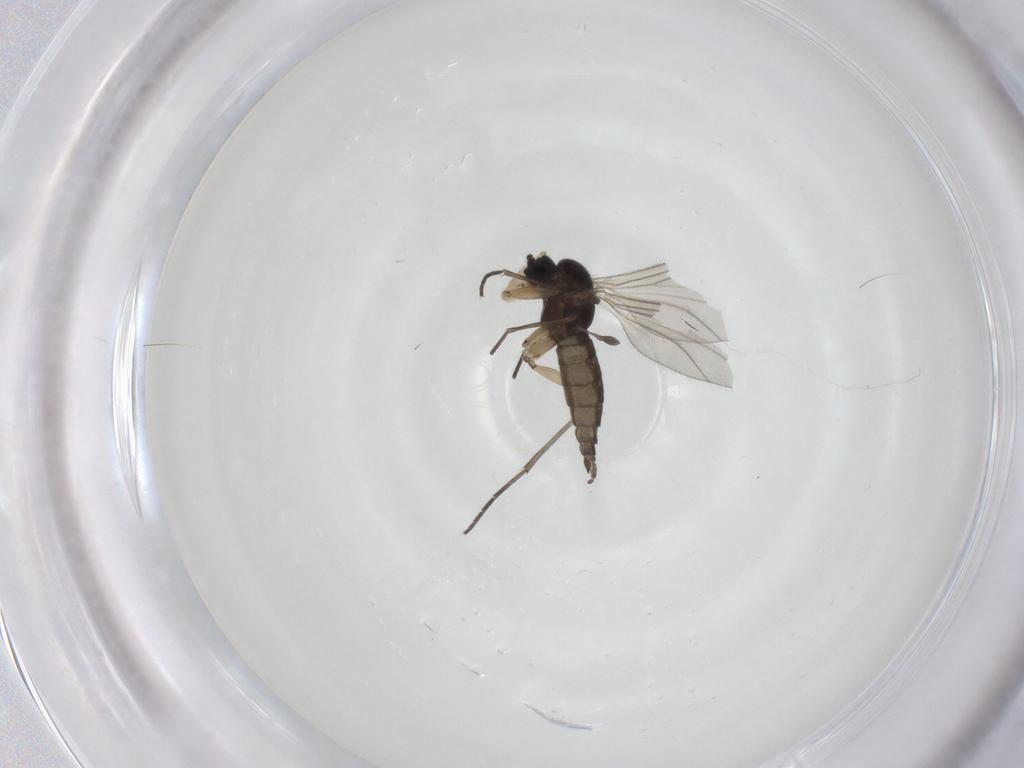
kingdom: Animalia
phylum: Arthropoda
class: Insecta
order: Diptera
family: Sciaridae
